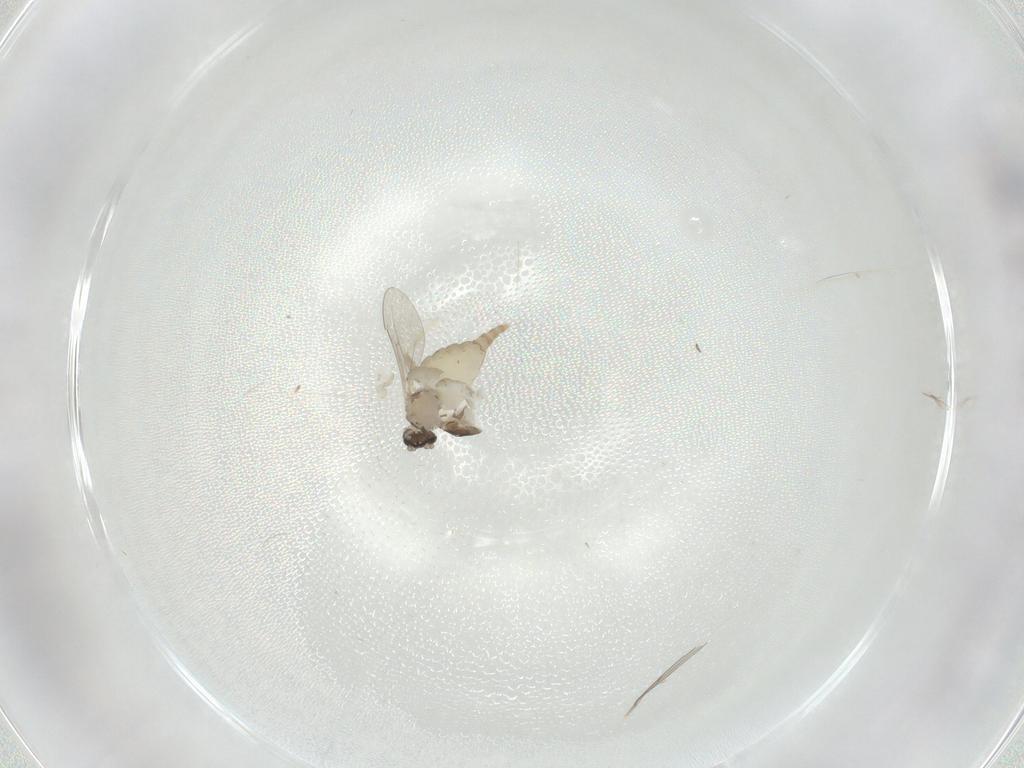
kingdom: Animalia
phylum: Arthropoda
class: Insecta
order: Diptera
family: Cecidomyiidae
